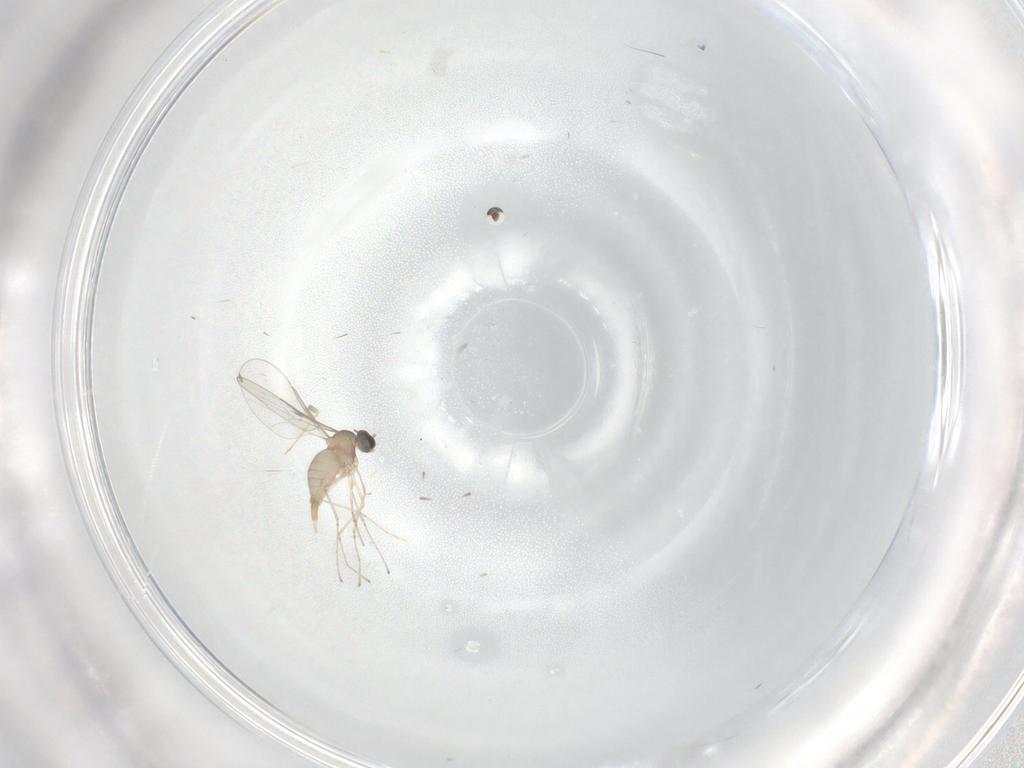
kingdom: Animalia
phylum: Arthropoda
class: Insecta
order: Diptera
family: Cecidomyiidae
